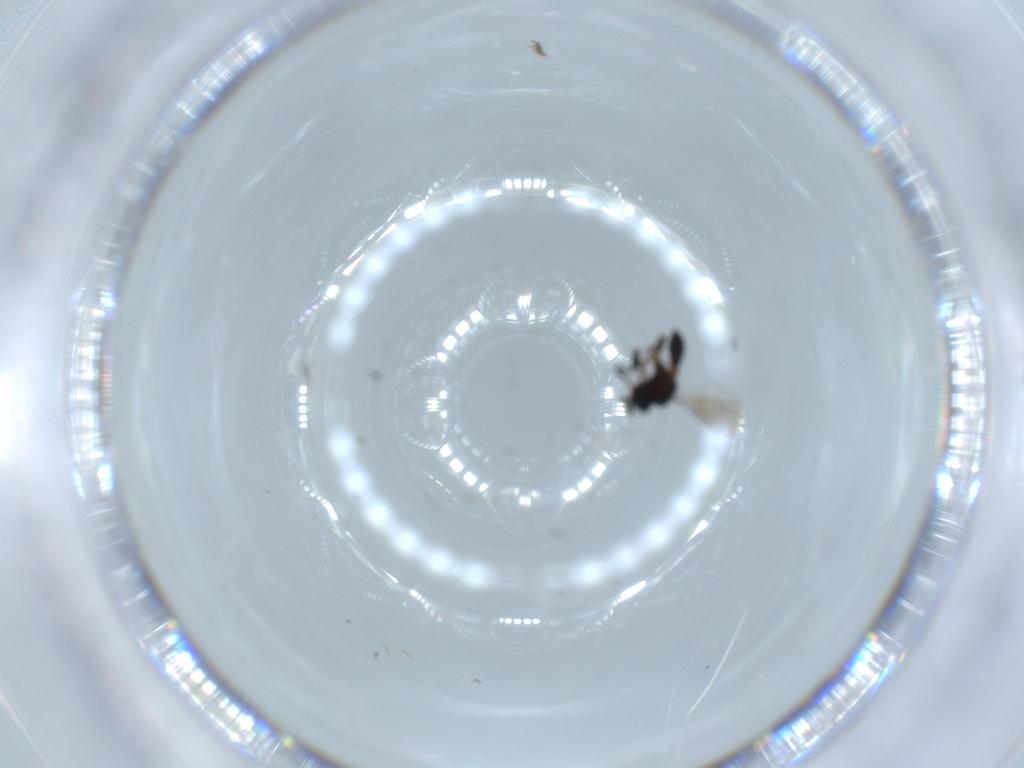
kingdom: Animalia
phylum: Arthropoda
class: Insecta
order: Hymenoptera
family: Scelionidae
